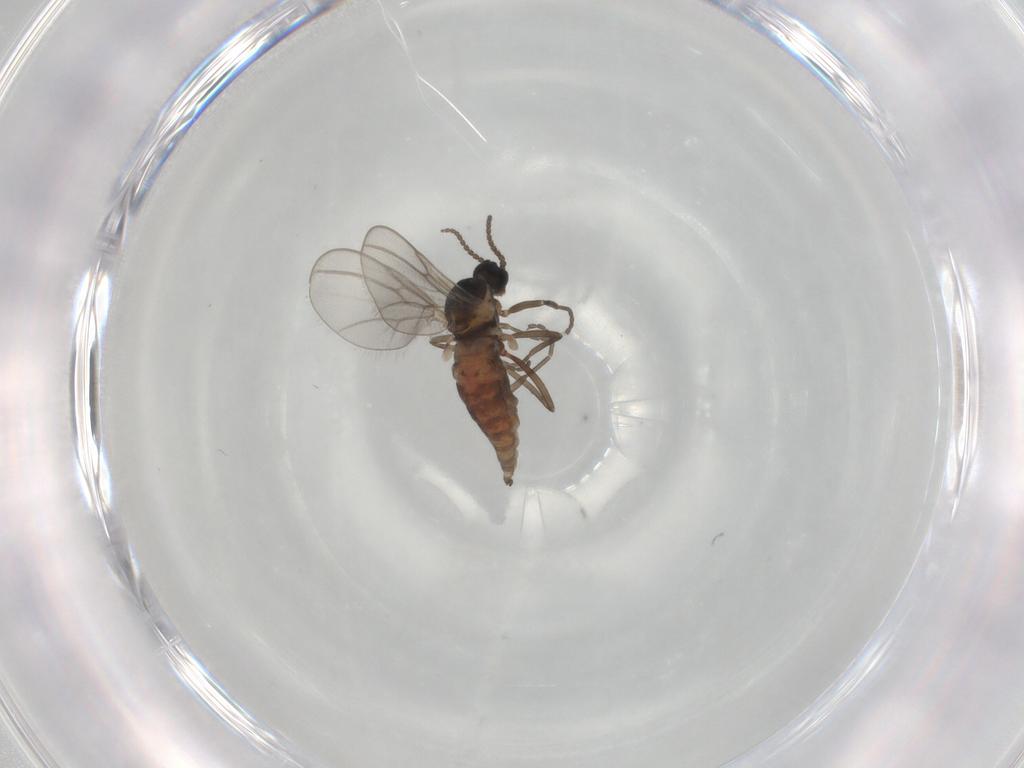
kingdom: Animalia
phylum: Arthropoda
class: Insecta
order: Diptera
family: Cecidomyiidae
